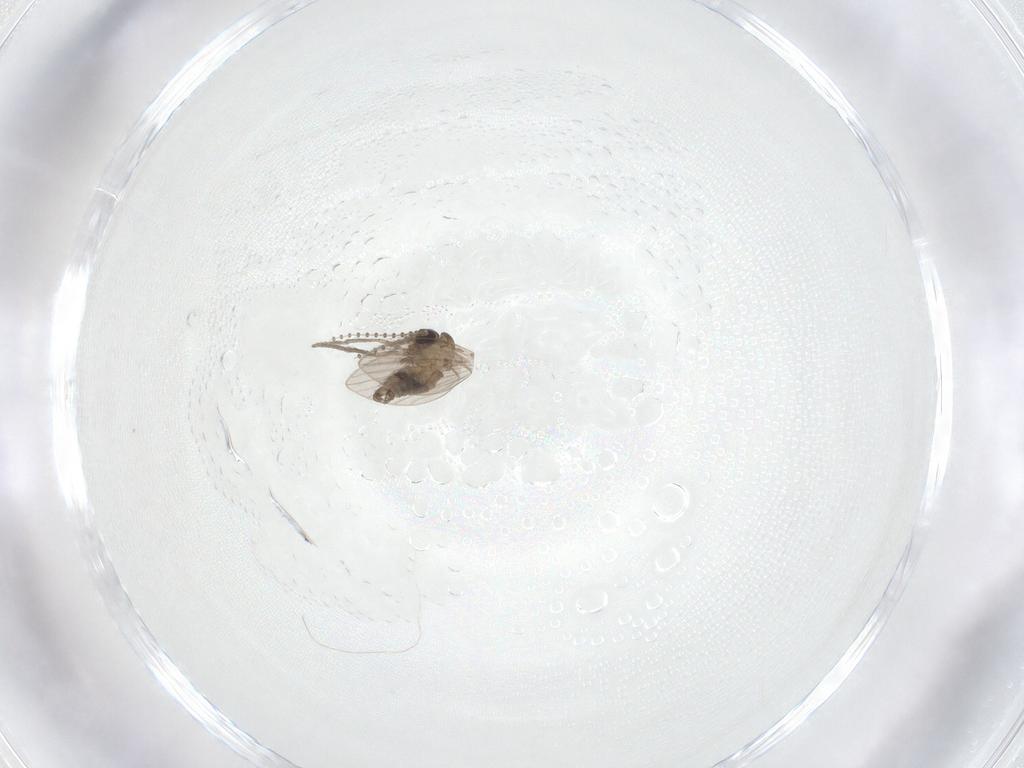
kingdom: Animalia
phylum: Arthropoda
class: Insecta
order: Diptera
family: Psychodidae
